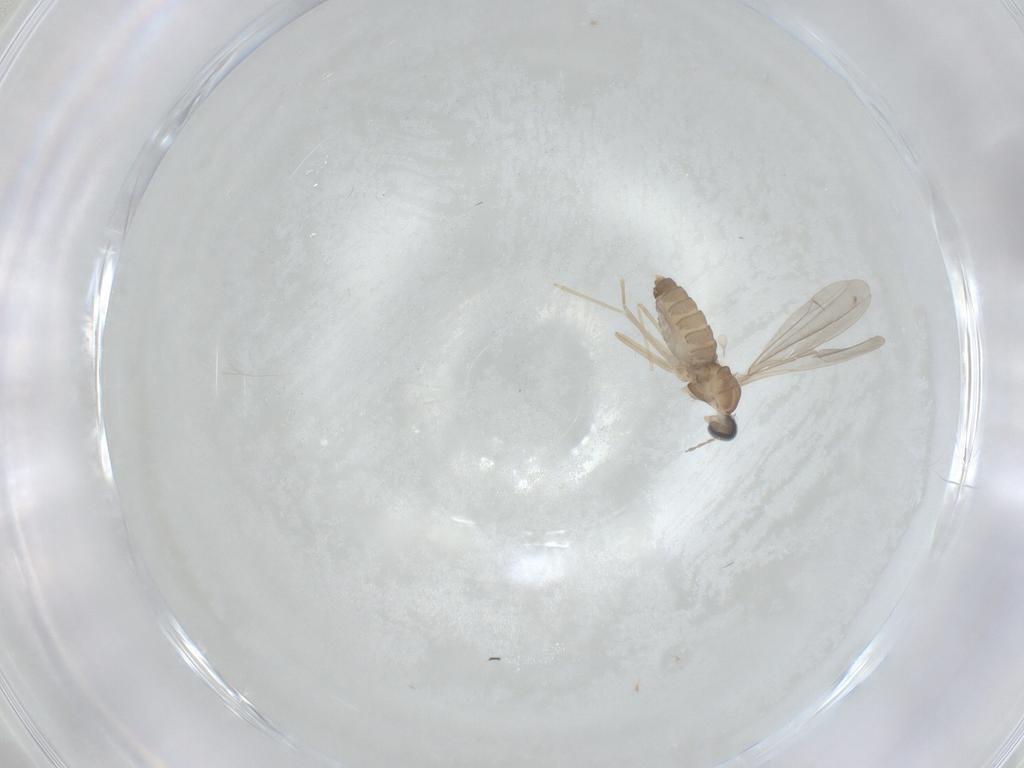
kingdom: Animalia
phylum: Arthropoda
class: Insecta
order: Diptera
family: Cecidomyiidae
